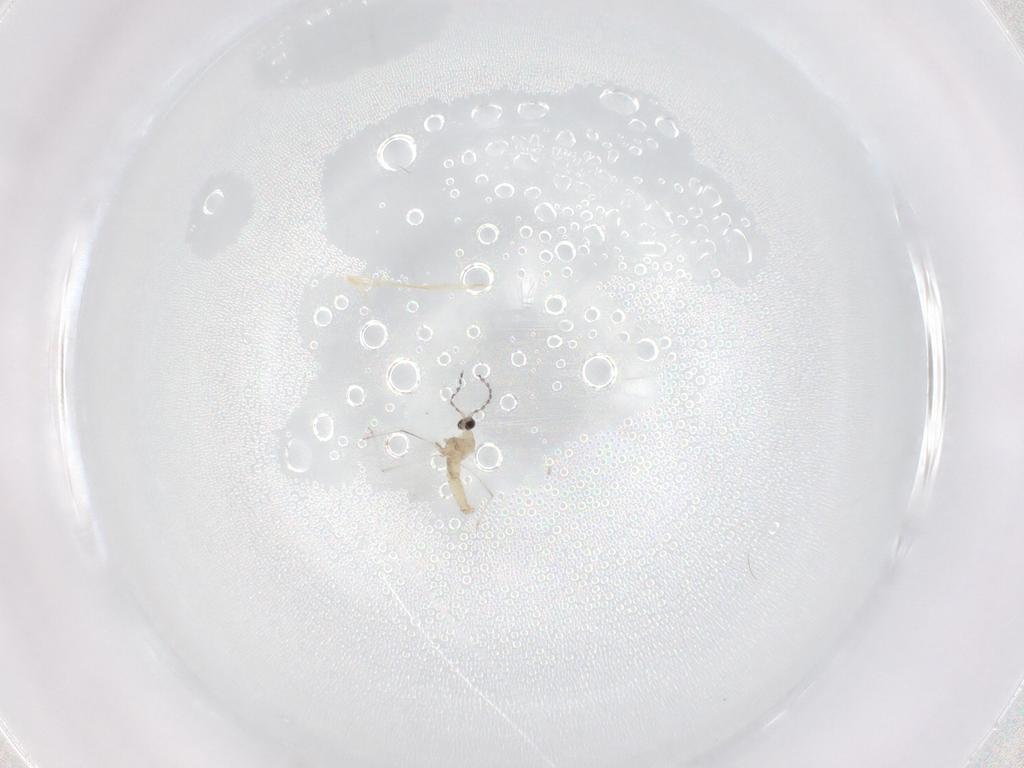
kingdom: Animalia
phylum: Arthropoda
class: Insecta
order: Diptera
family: Cecidomyiidae
